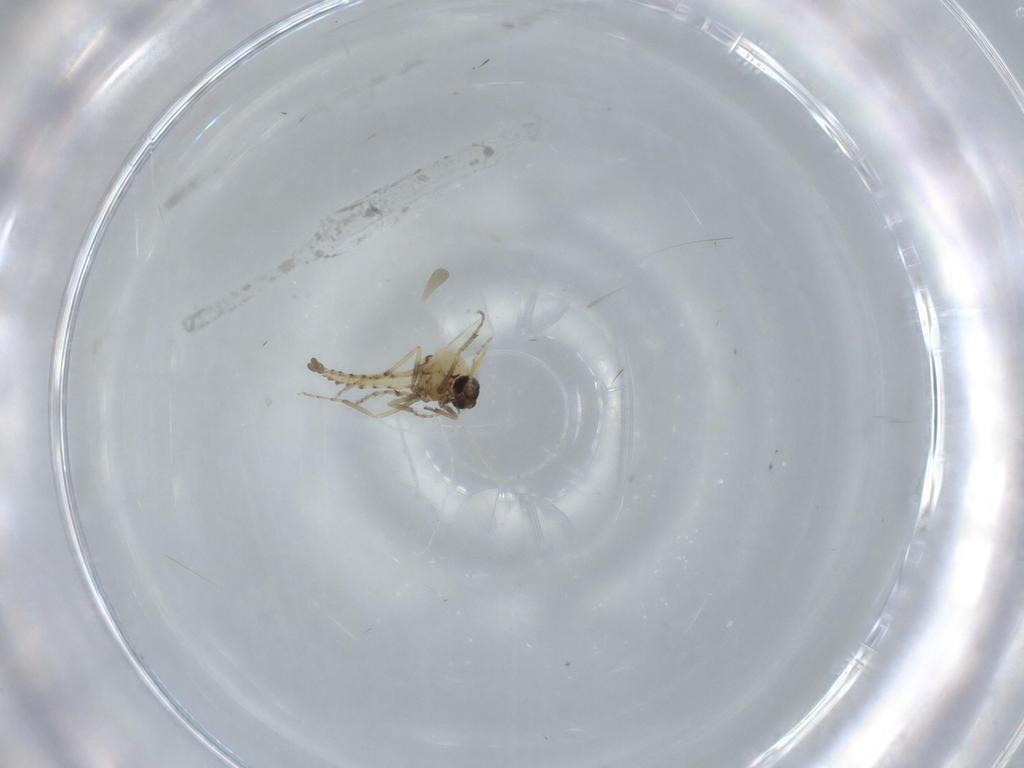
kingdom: Animalia
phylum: Arthropoda
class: Insecta
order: Diptera
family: Ceratopogonidae
